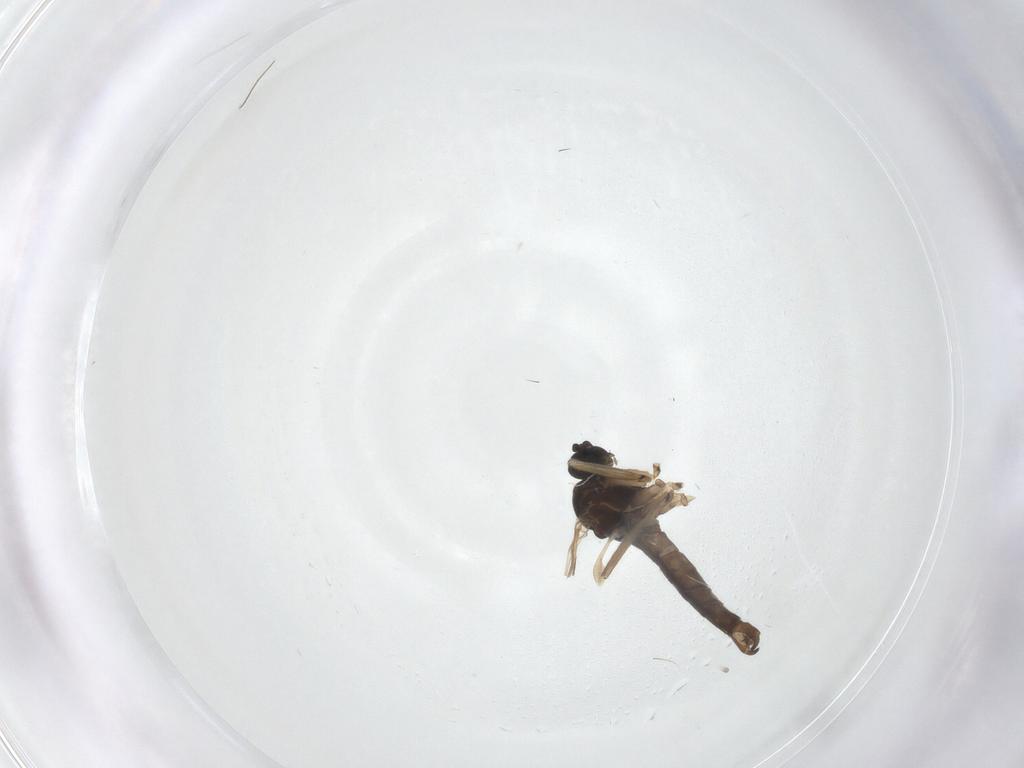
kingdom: Animalia
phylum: Arthropoda
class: Insecta
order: Diptera
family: Sciaridae
